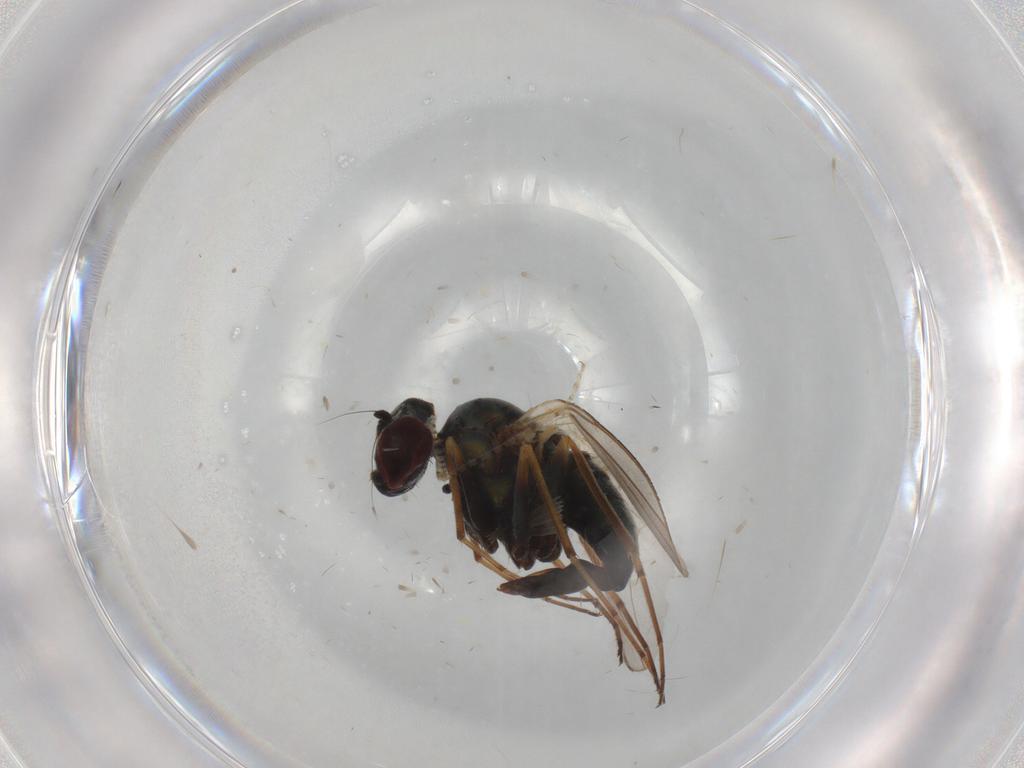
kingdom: Animalia
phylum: Arthropoda
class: Insecta
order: Diptera
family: Dolichopodidae
